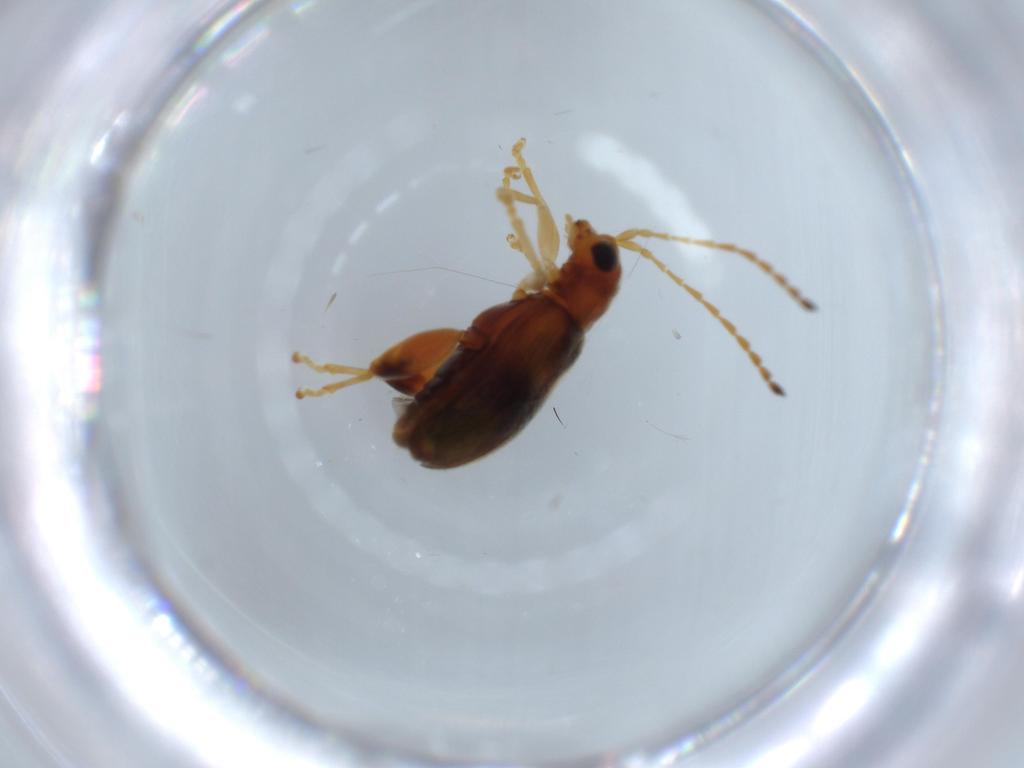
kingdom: Animalia
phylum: Arthropoda
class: Insecta
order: Coleoptera
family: Chrysomelidae
